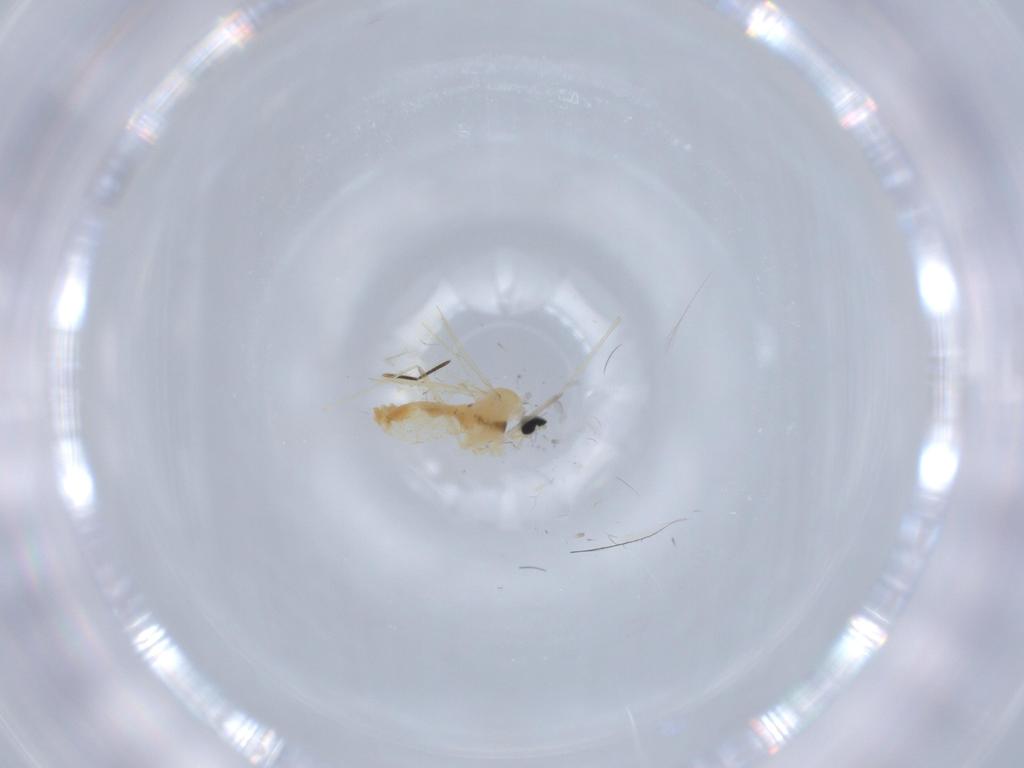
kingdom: Animalia
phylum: Arthropoda
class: Insecta
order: Diptera
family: Cecidomyiidae
